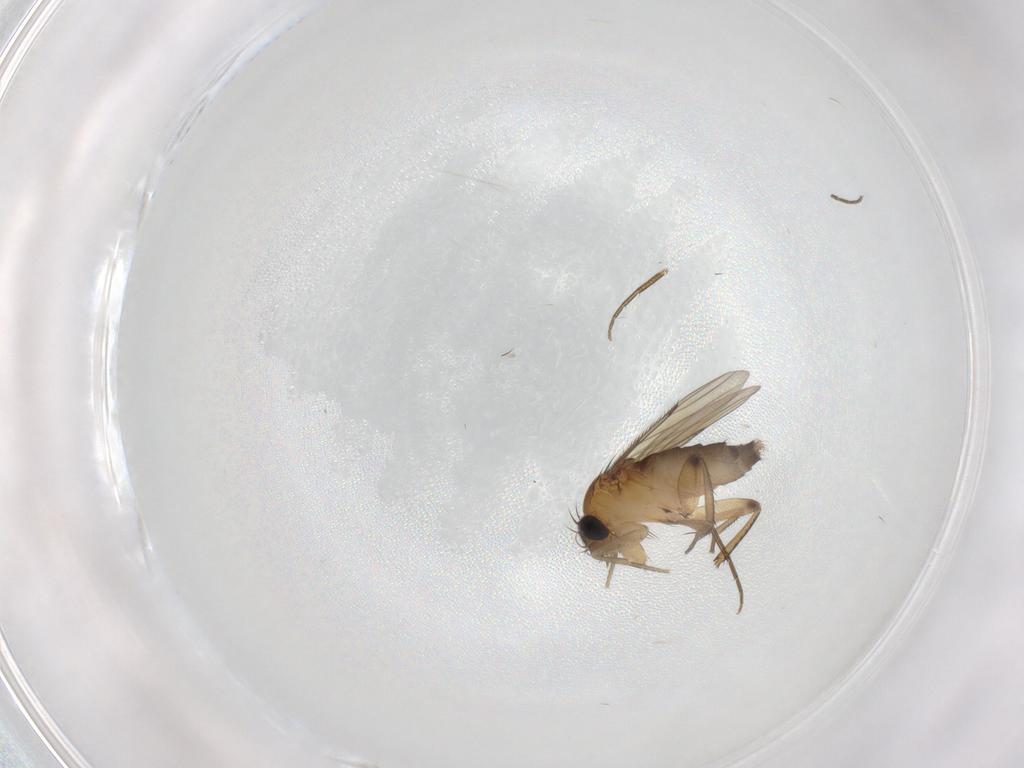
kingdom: Animalia
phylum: Arthropoda
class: Insecta
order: Diptera
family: Phoridae
